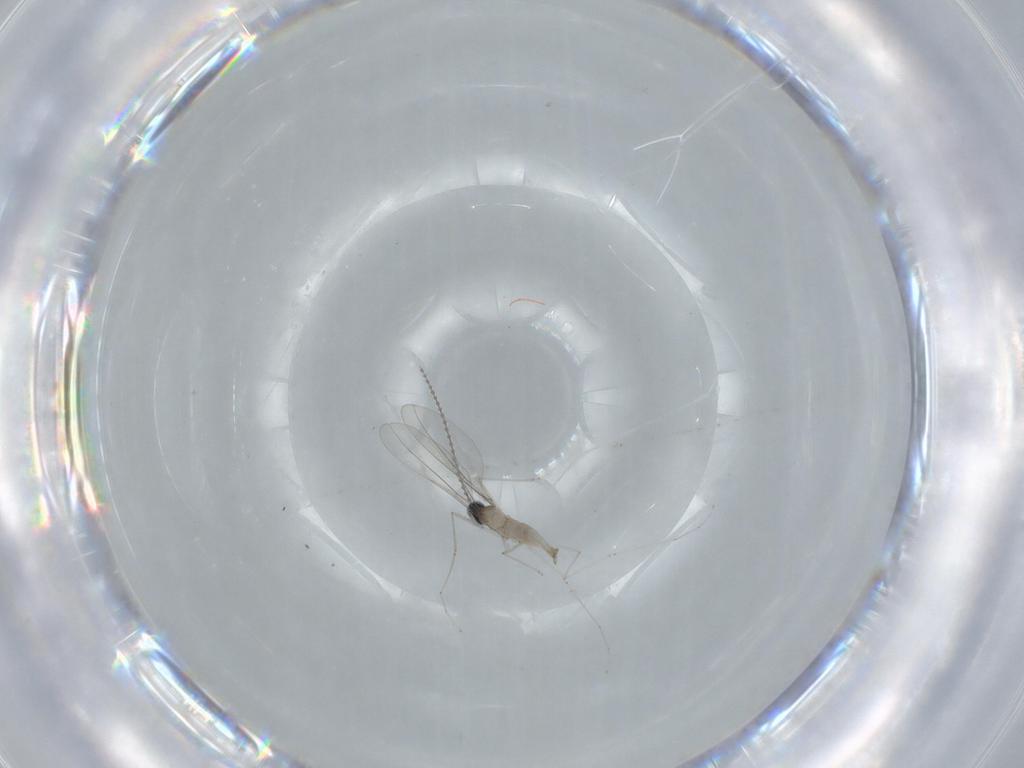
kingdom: Animalia
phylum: Arthropoda
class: Insecta
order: Diptera
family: Cecidomyiidae
